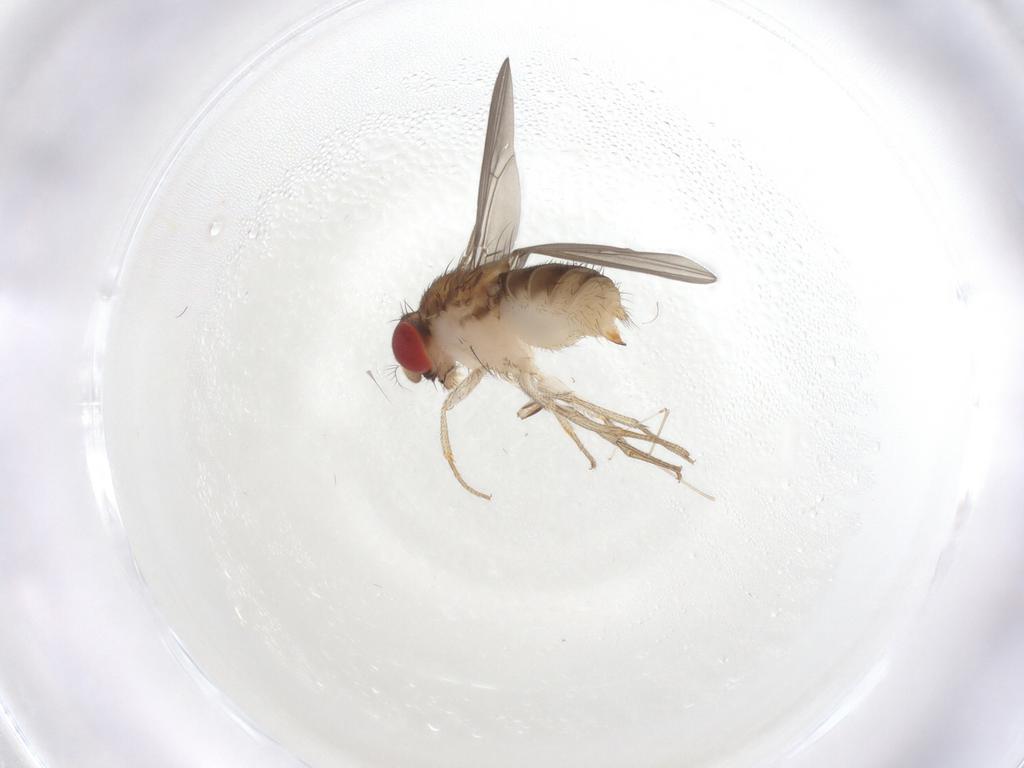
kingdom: Animalia
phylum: Arthropoda
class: Insecta
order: Diptera
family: Drosophilidae
